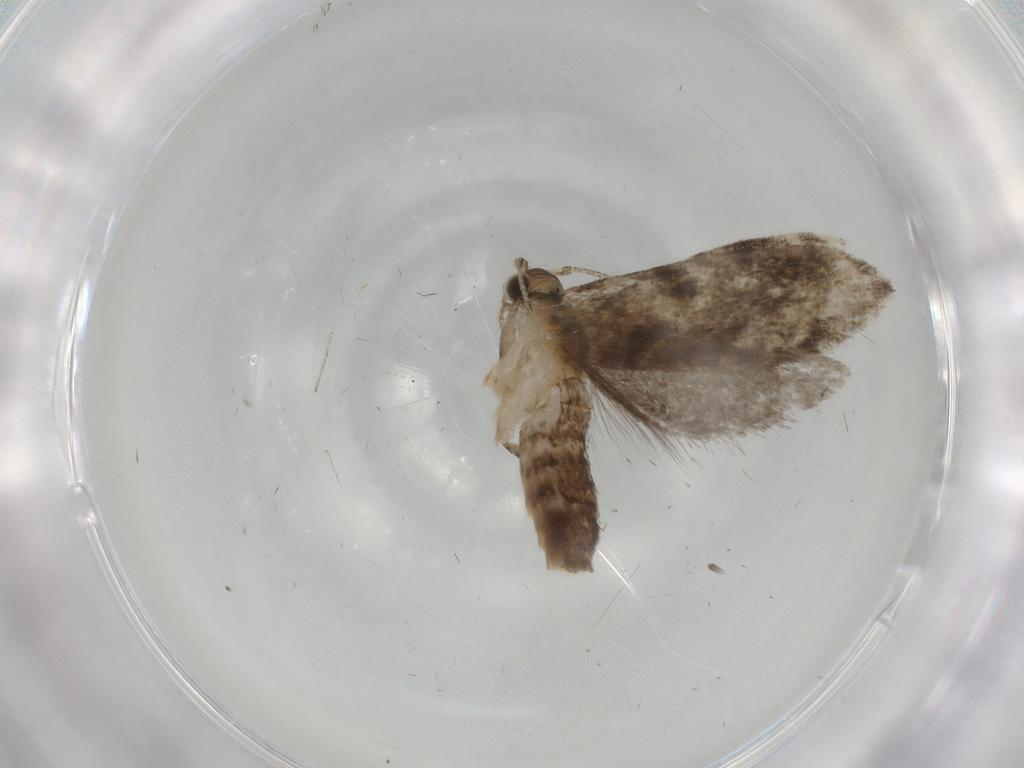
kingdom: Animalia
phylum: Arthropoda
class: Insecta
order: Lepidoptera
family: Tineidae
